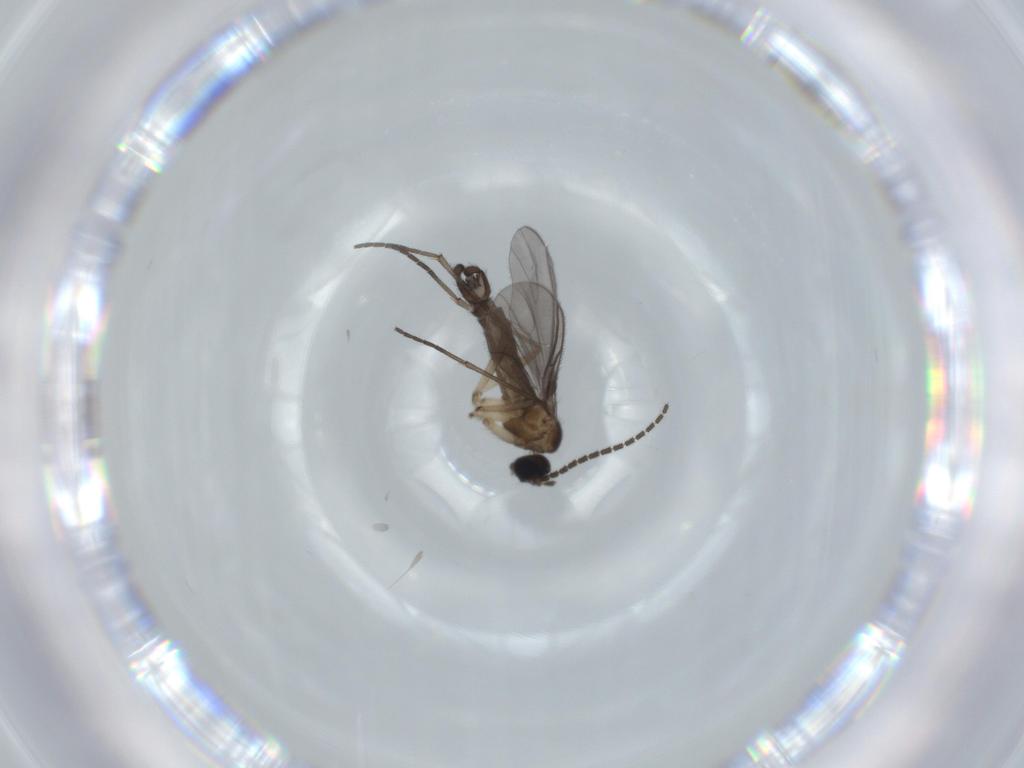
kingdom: Animalia
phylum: Arthropoda
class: Insecta
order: Diptera
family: Sciaridae
